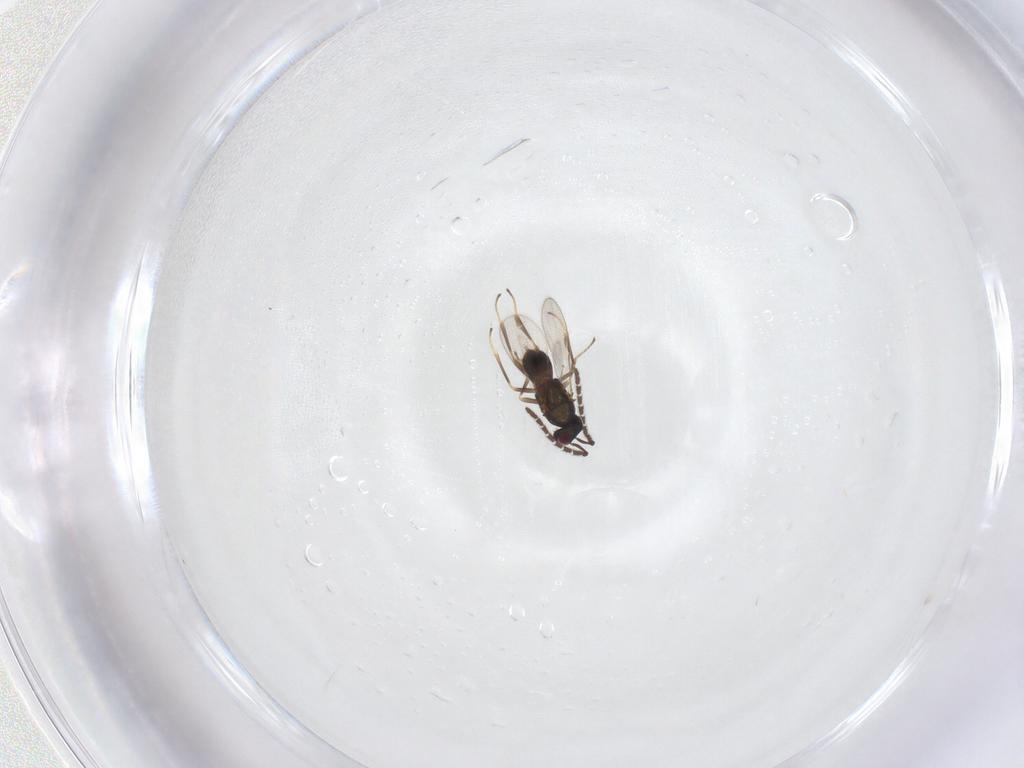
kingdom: Animalia
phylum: Arthropoda
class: Insecta
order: Hymenoptera
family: Encyrtidae
